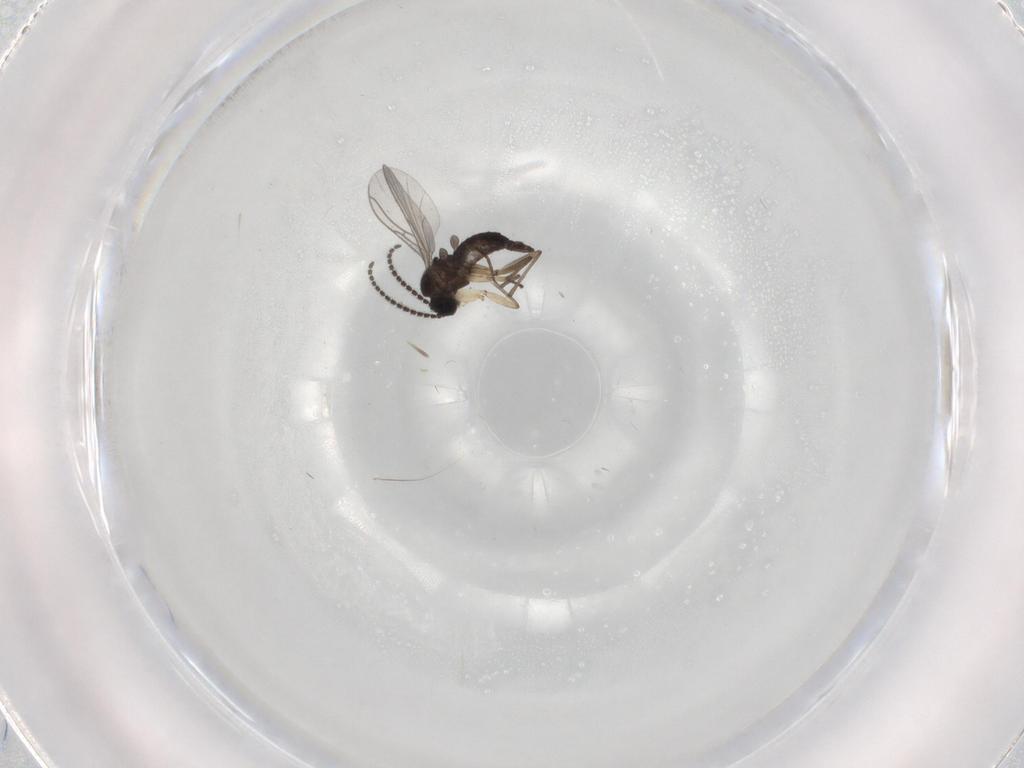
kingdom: Animalia
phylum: Arthropoda
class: Insecta
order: Diptera
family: Sciaridae
